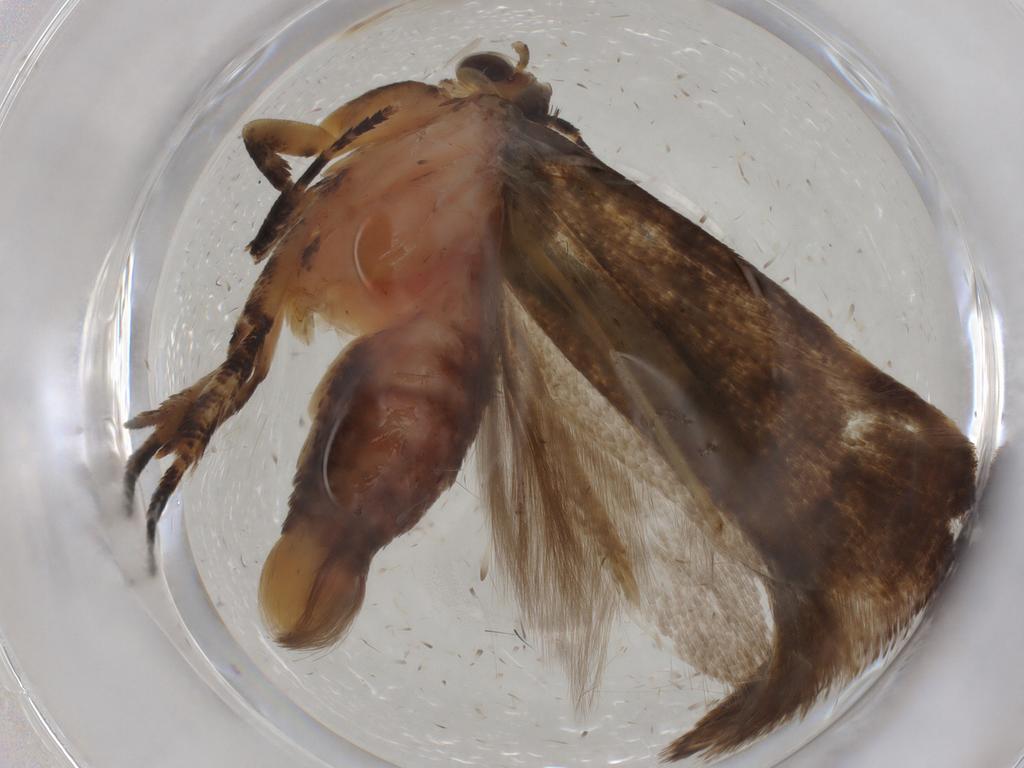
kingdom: Animalia
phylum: Arthropoda
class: Insecta
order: Lepidoptera
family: Gelechiidae
